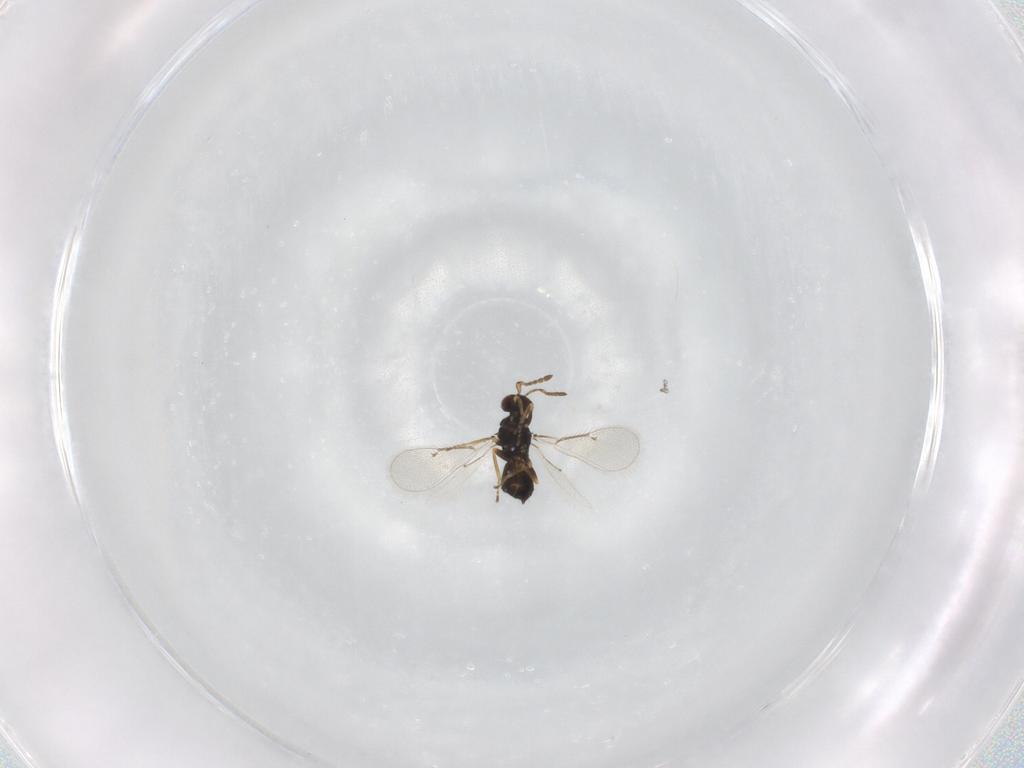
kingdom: Animalia
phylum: Arthropoda
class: Insecta
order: Hymenoptera
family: Eulophidae
